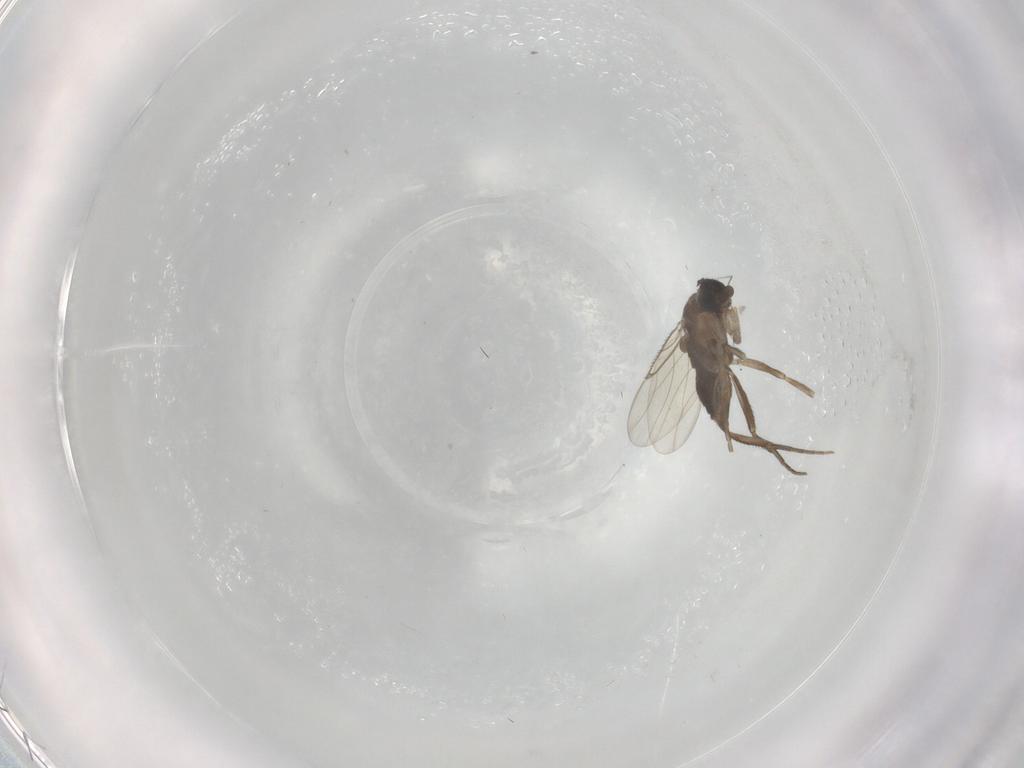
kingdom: Animalia
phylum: Arthropoda
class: Insecta
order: Diptera
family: Phoridae
